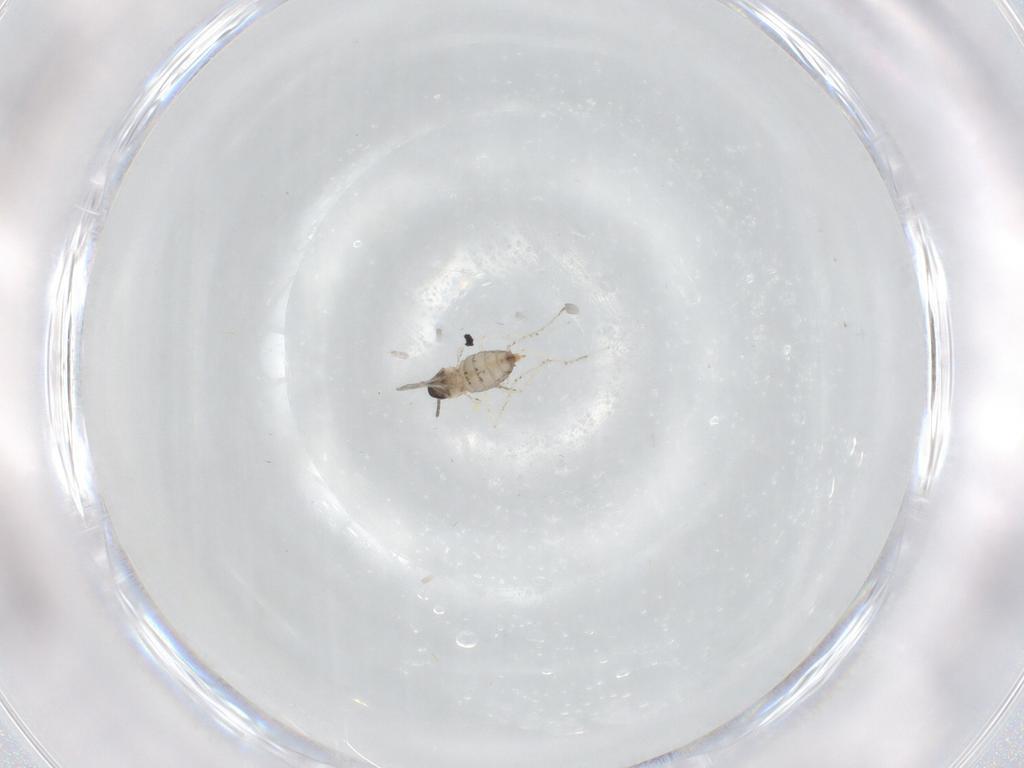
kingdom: Animalia
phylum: Arthropoda
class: Insecta
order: Diptera
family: Cecidomyiidae
